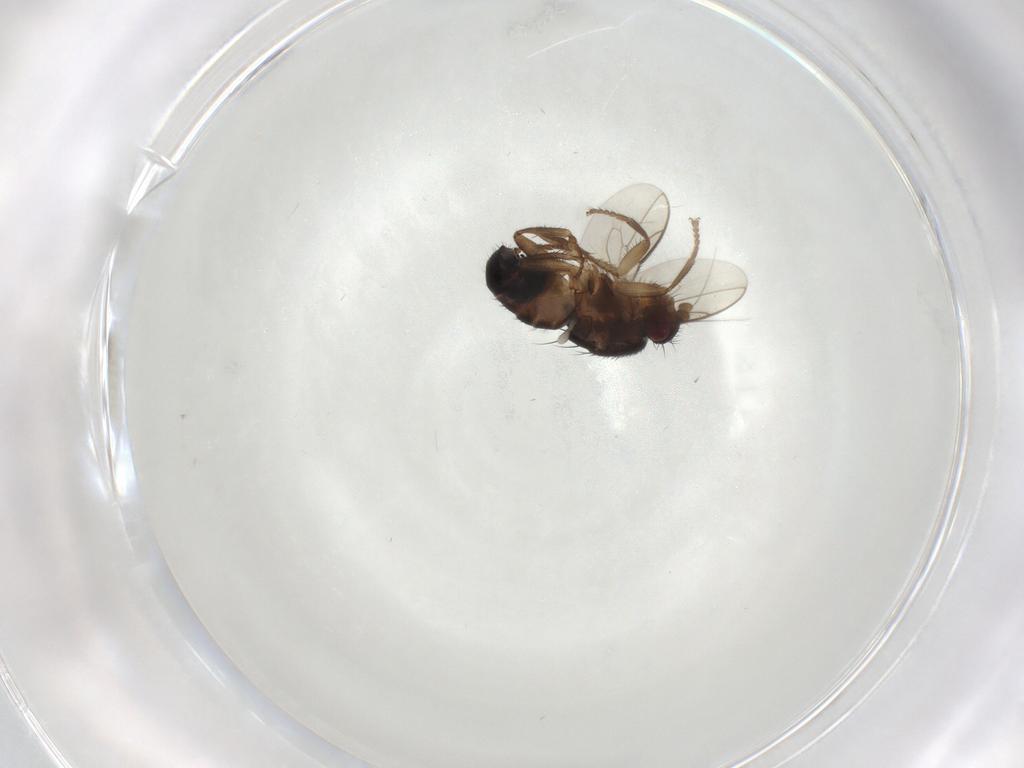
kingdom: Animalia
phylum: Arthropoda
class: Insecta
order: Diptera
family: Sphaeroceridae
